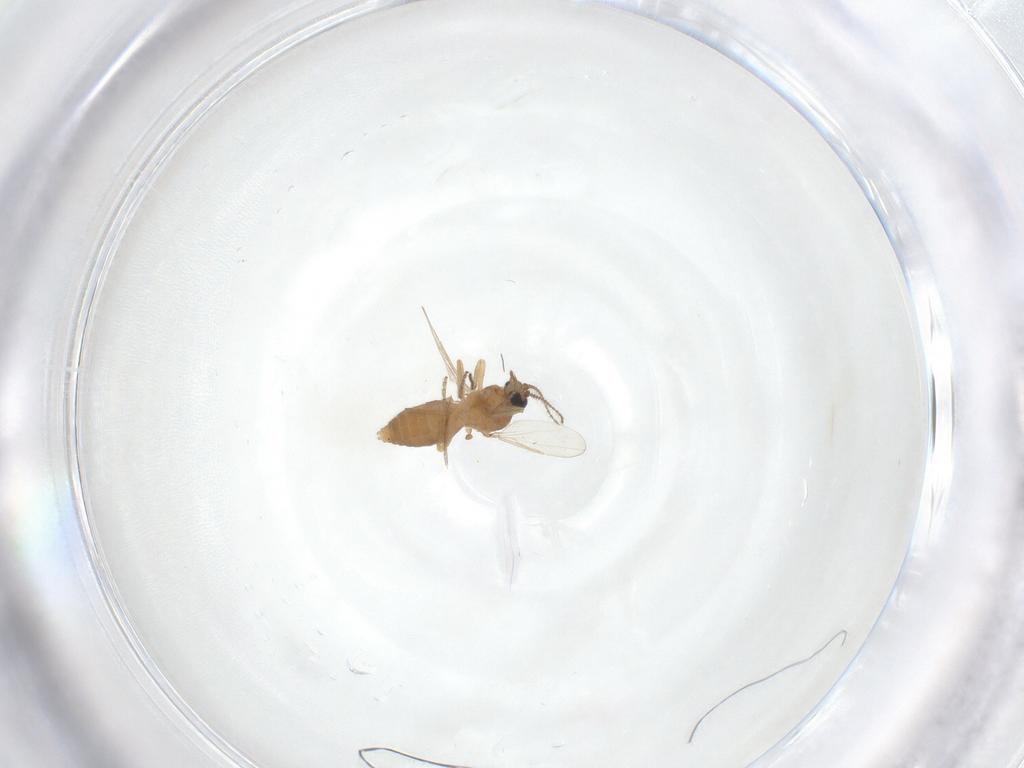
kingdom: Animalia
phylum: Arthropoda
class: Insecta
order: Diptera
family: Ceratopogonidae
